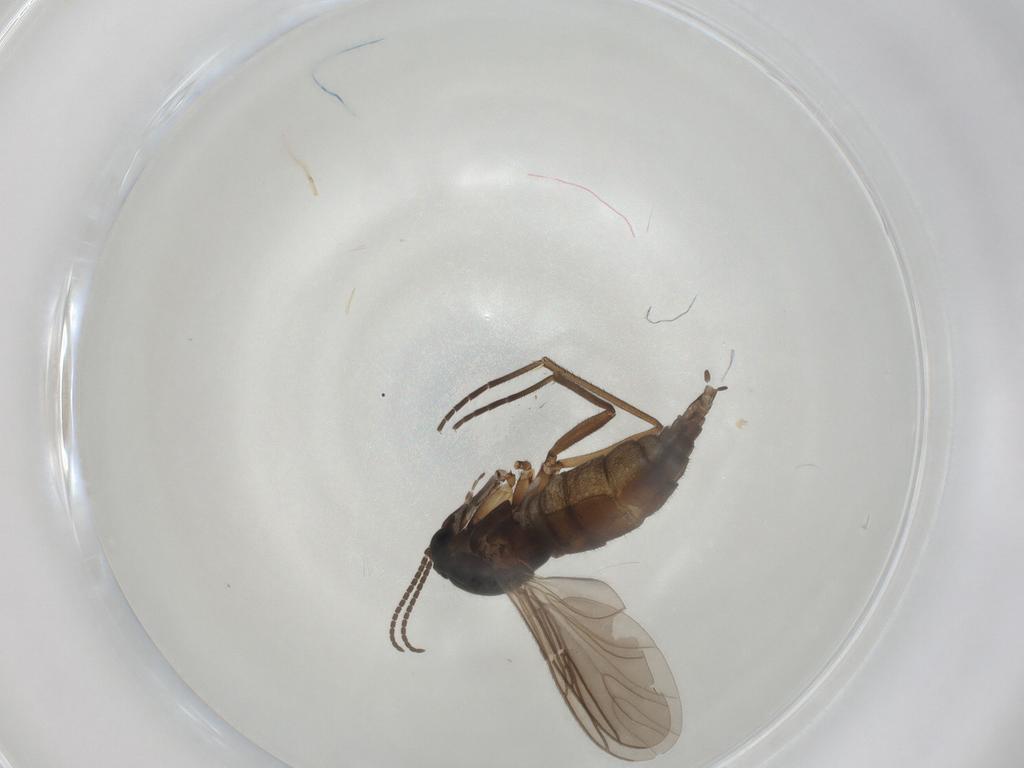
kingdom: Animalia
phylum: Arthropoda
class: Insecta
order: Diptera
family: Sciaridae
